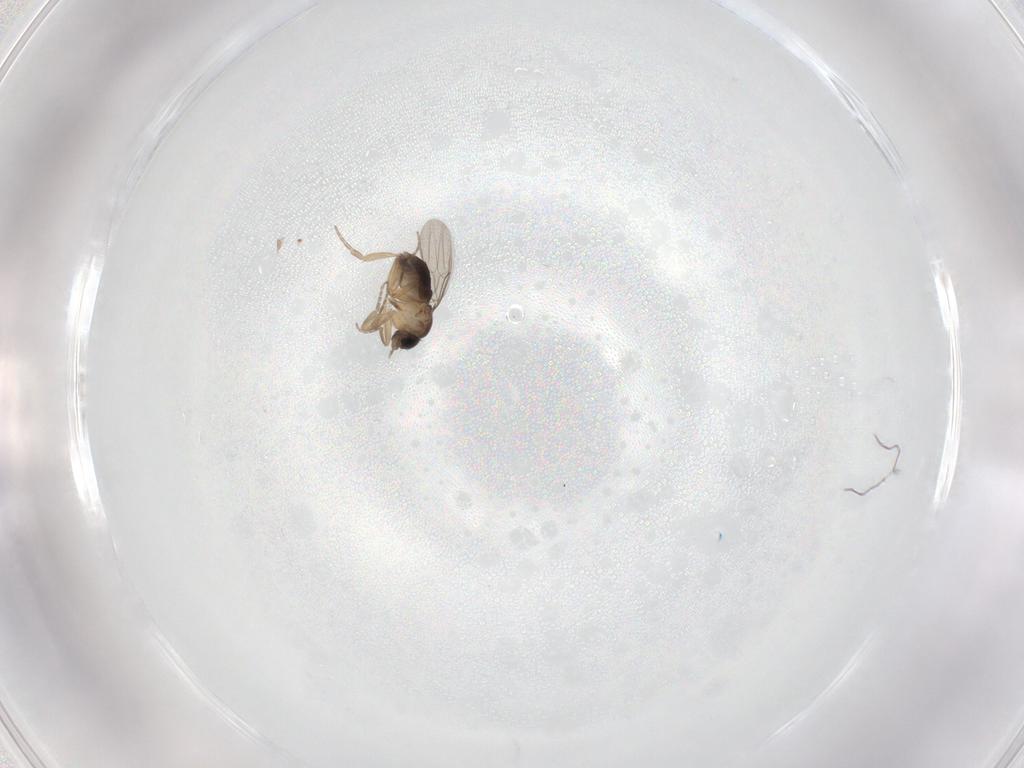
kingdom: Animalia
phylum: Arthropoda
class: Insecta
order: Diptera
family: Phoridae
